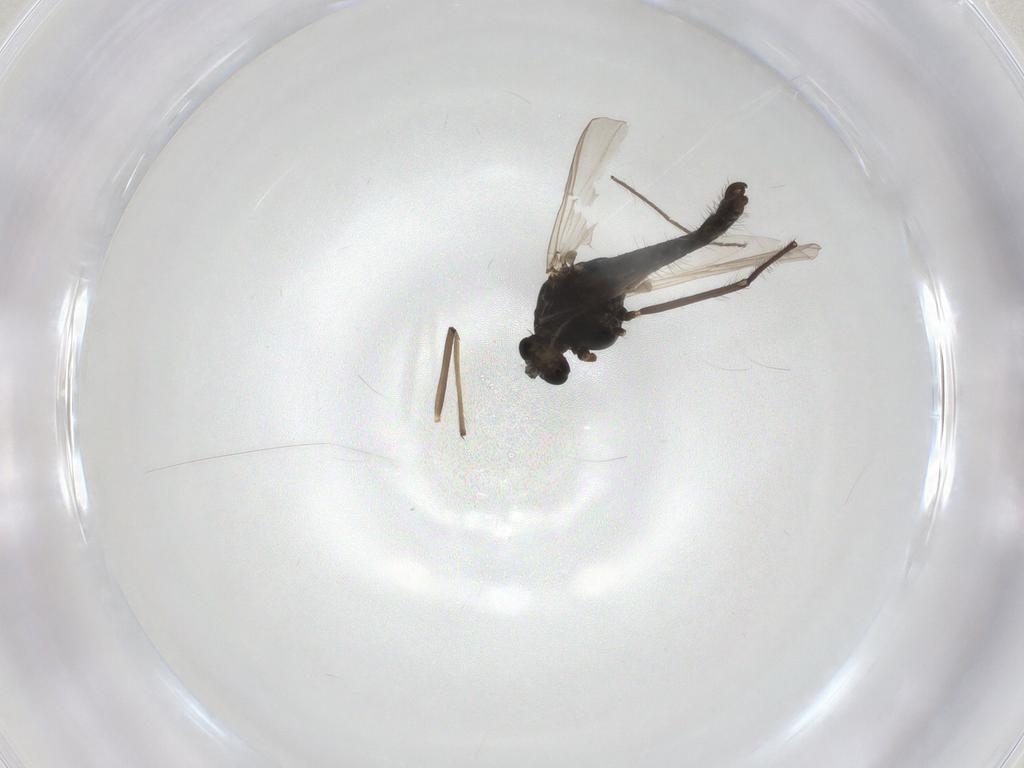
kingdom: Animalia
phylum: Arthropoda
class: Insecta
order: Diptera
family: Chironomidae
